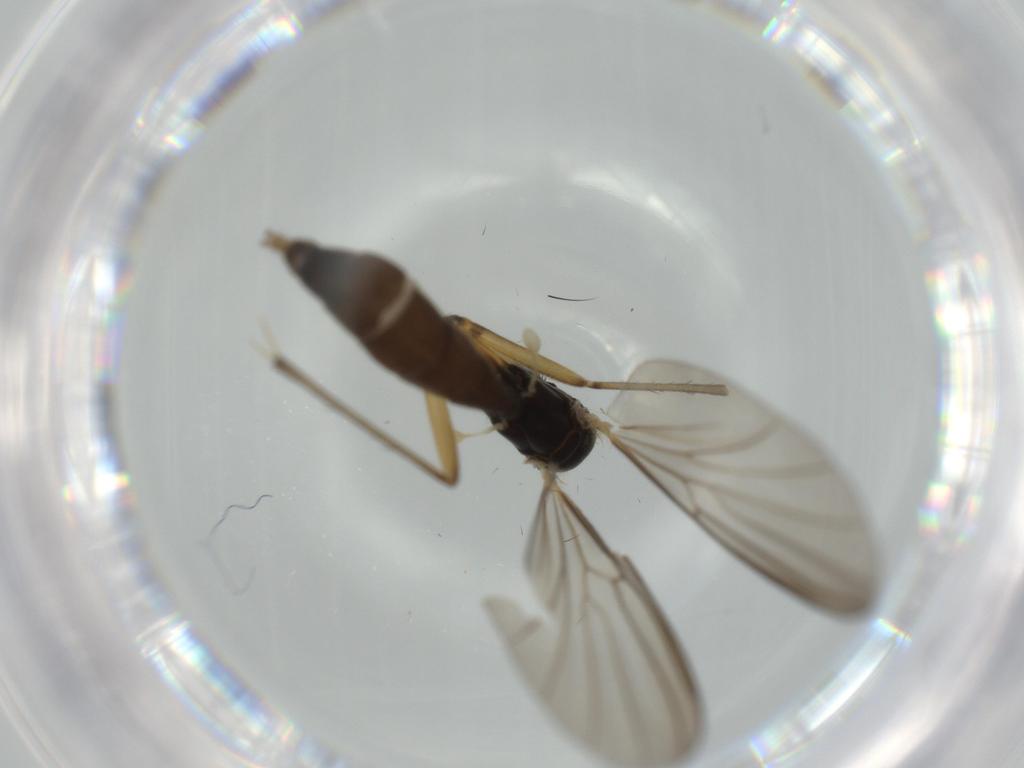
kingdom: Animalia
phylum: Arthropoda
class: Insecta
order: Diptera
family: Mycetophilidae
